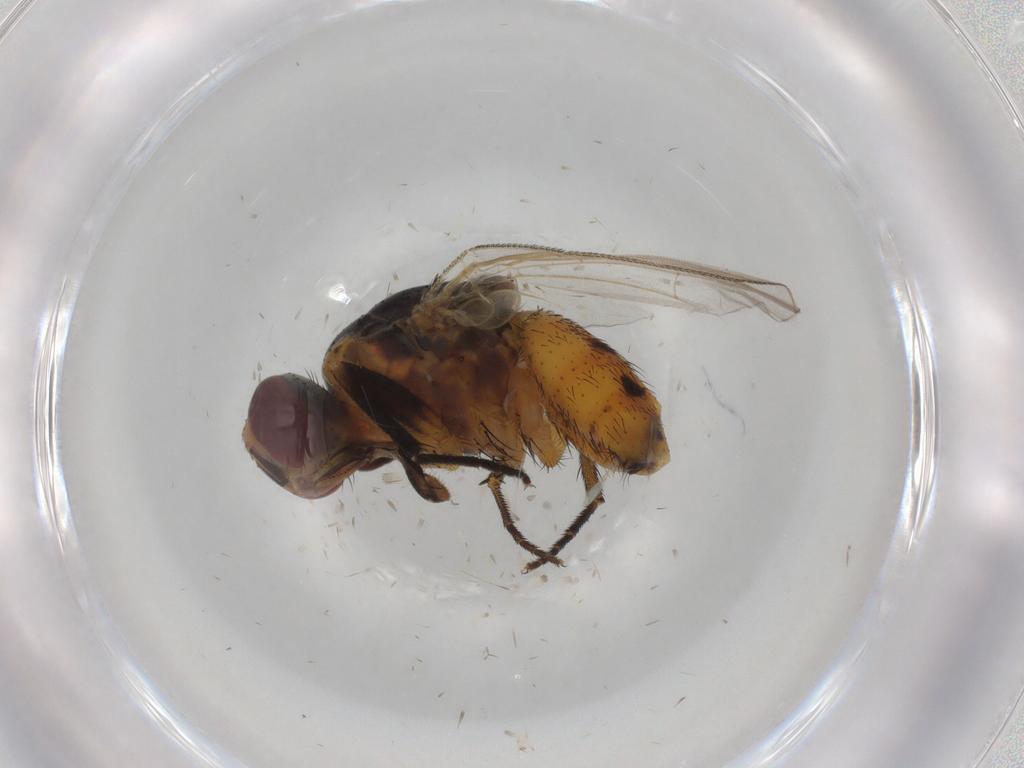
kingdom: Animalia
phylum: Arthropoda
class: Insecta
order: Diptera
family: Muscidae
